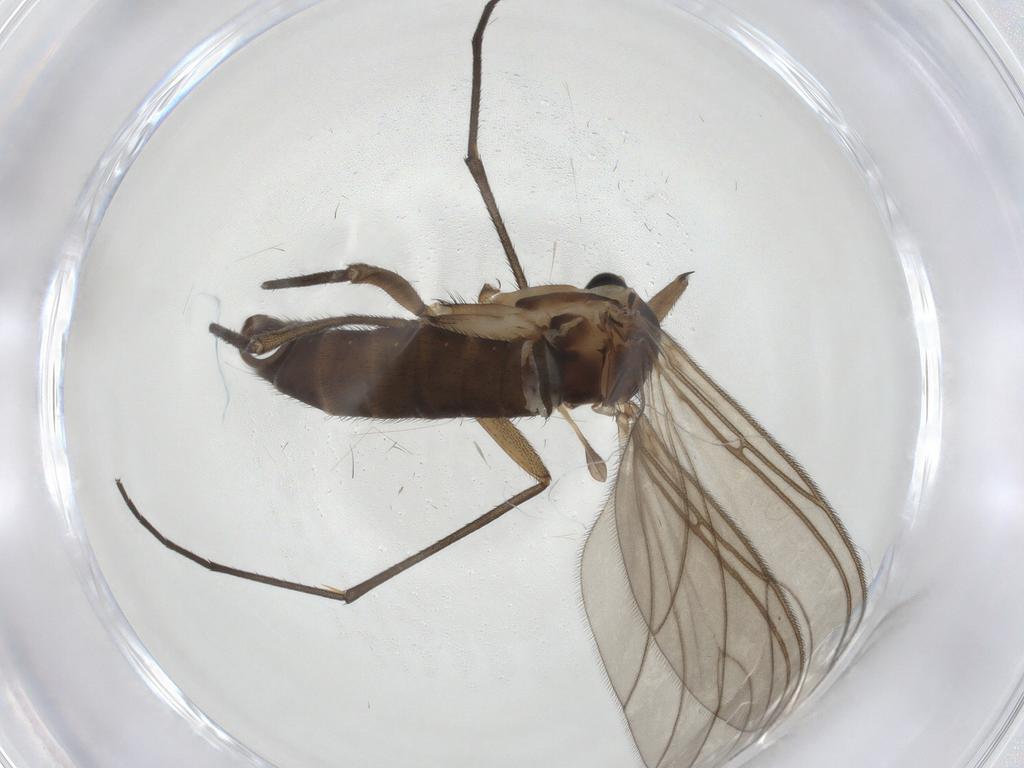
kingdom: Animalia
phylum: Arthropoda
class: Insecta
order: Diptera
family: Sciaridae
